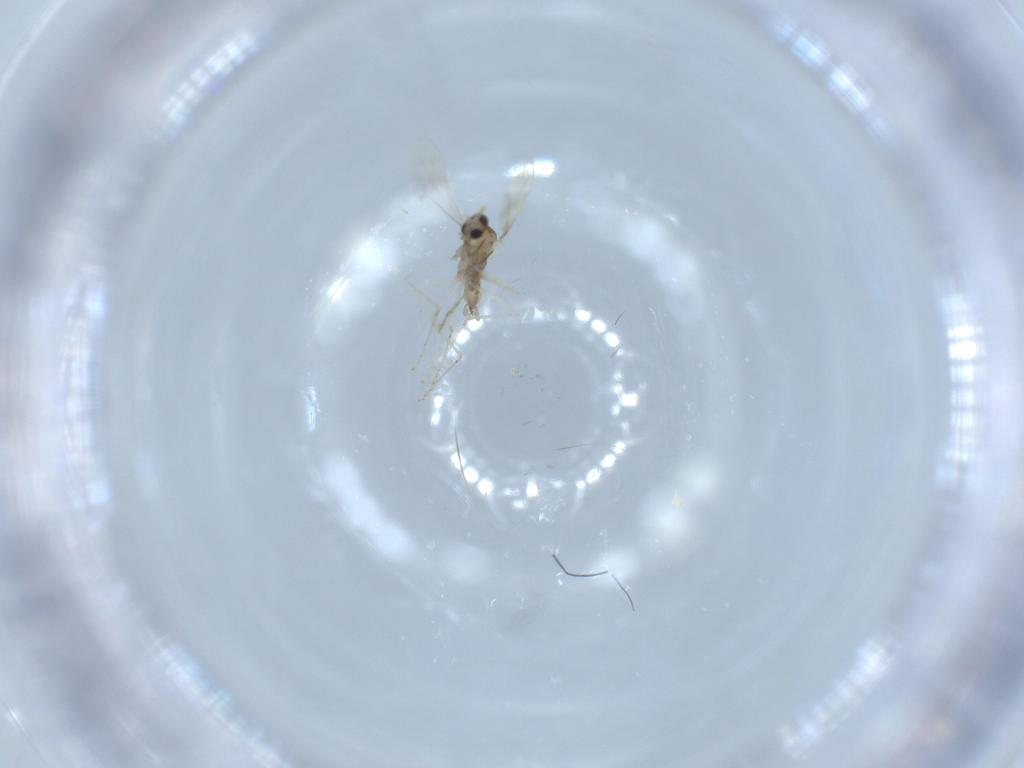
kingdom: Animalia
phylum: Arthropoda
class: Insecta
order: Diptera
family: Cecidomyiidae
